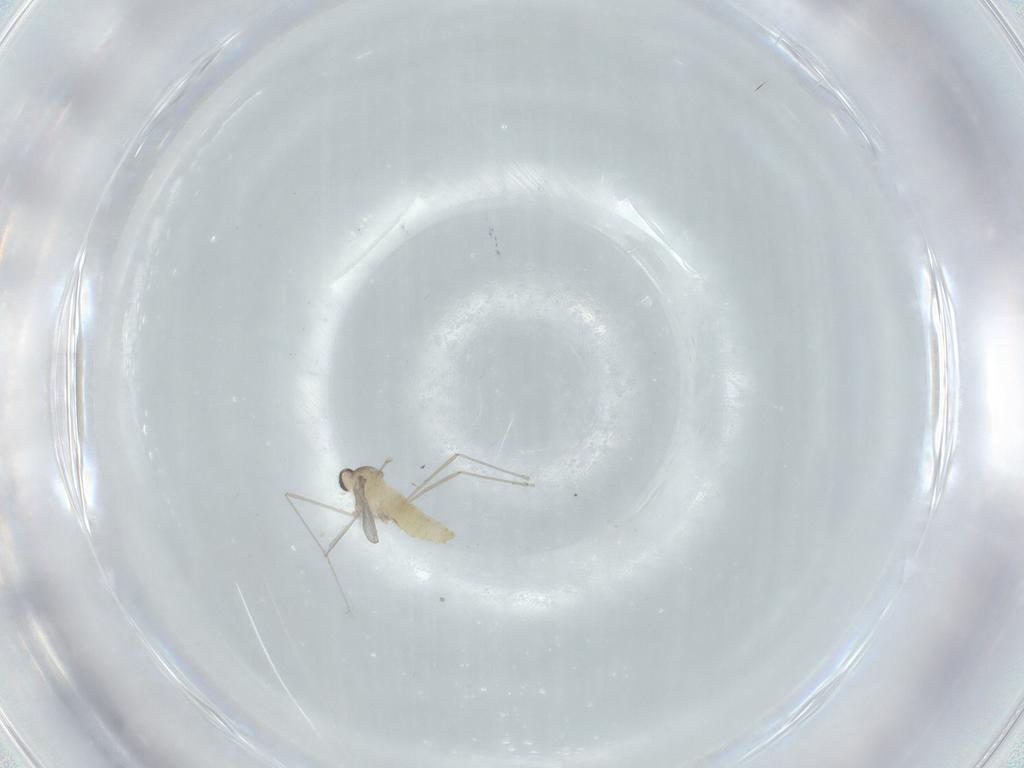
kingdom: Animalia
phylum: Arthropoda
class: Insecta
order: Diptera
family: Cecidomyiidae
